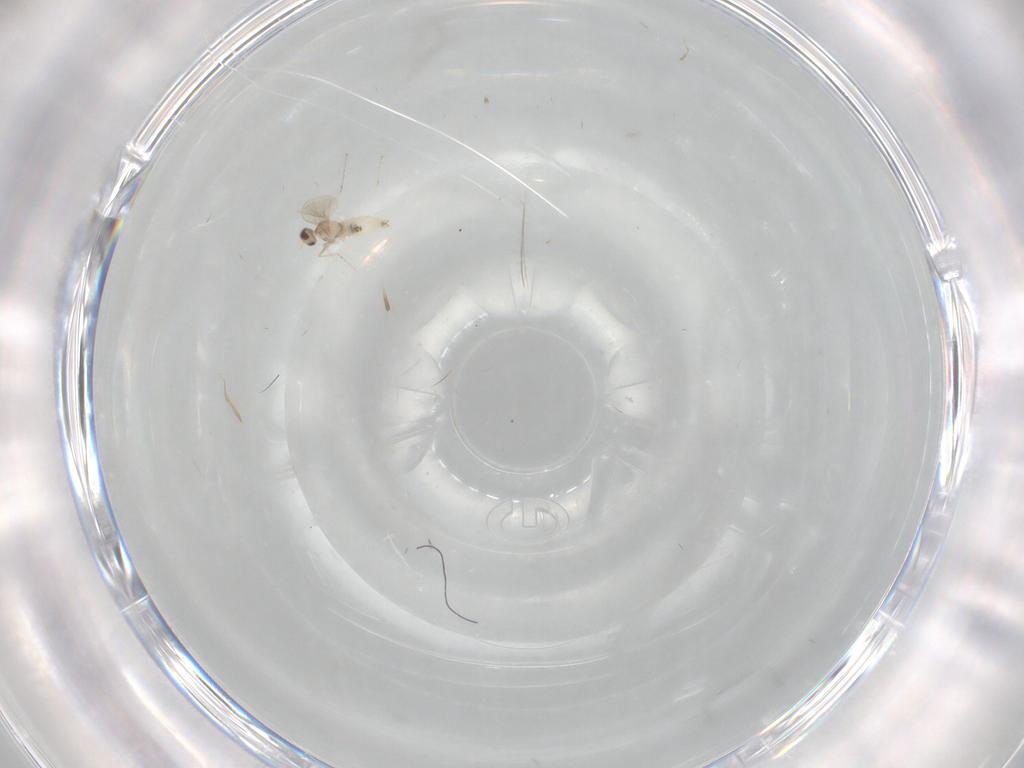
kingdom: Animalia
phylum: Arthropoda
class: Insecta
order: Diptera
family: Cecidomyiidae
